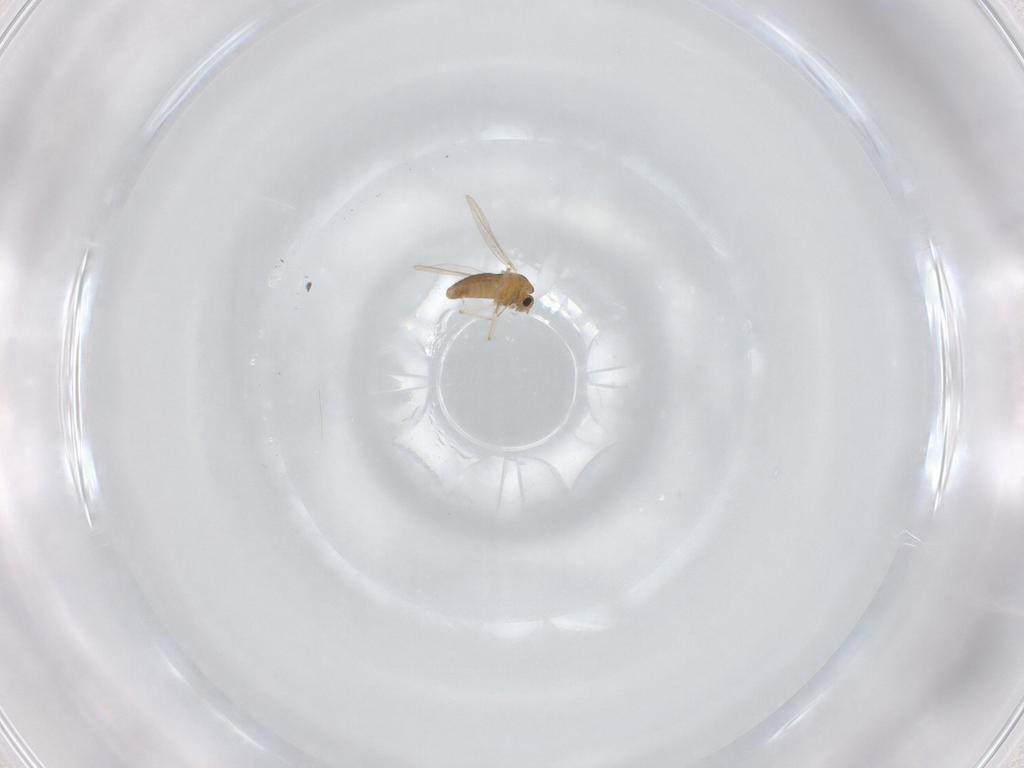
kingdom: Animalia
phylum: Arthropoda
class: Insecta
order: Diptera
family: Chironomidae
